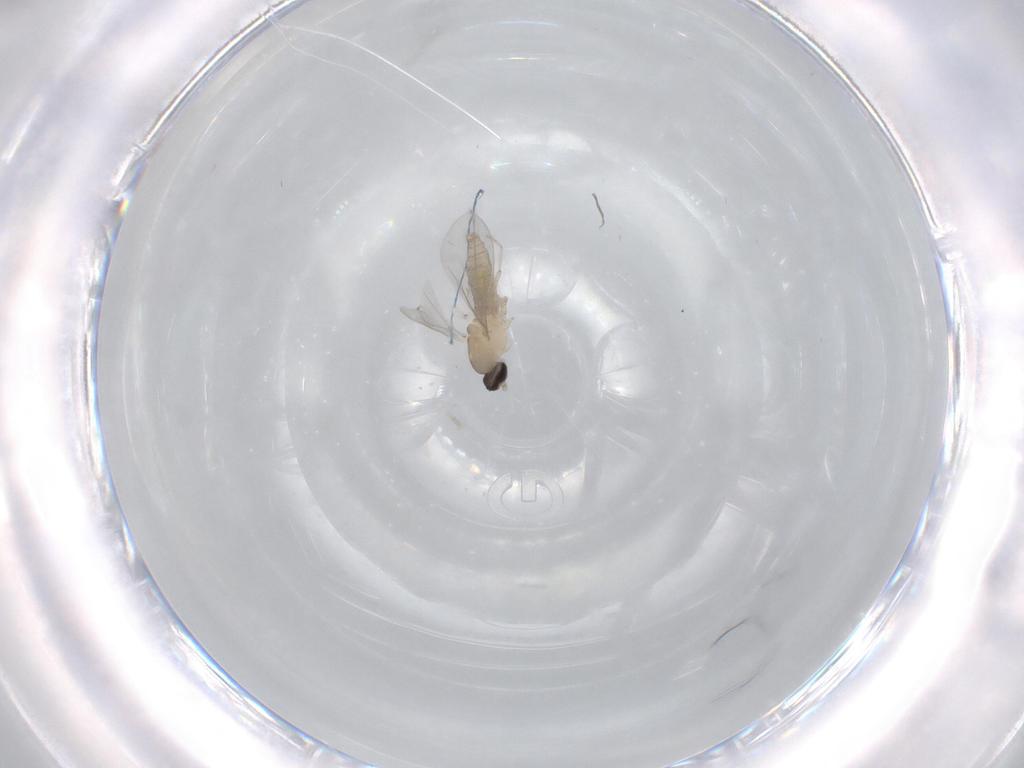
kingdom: Animalia
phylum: Arthropoda
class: Insecta
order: Diptera
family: Cecidomyiidae
